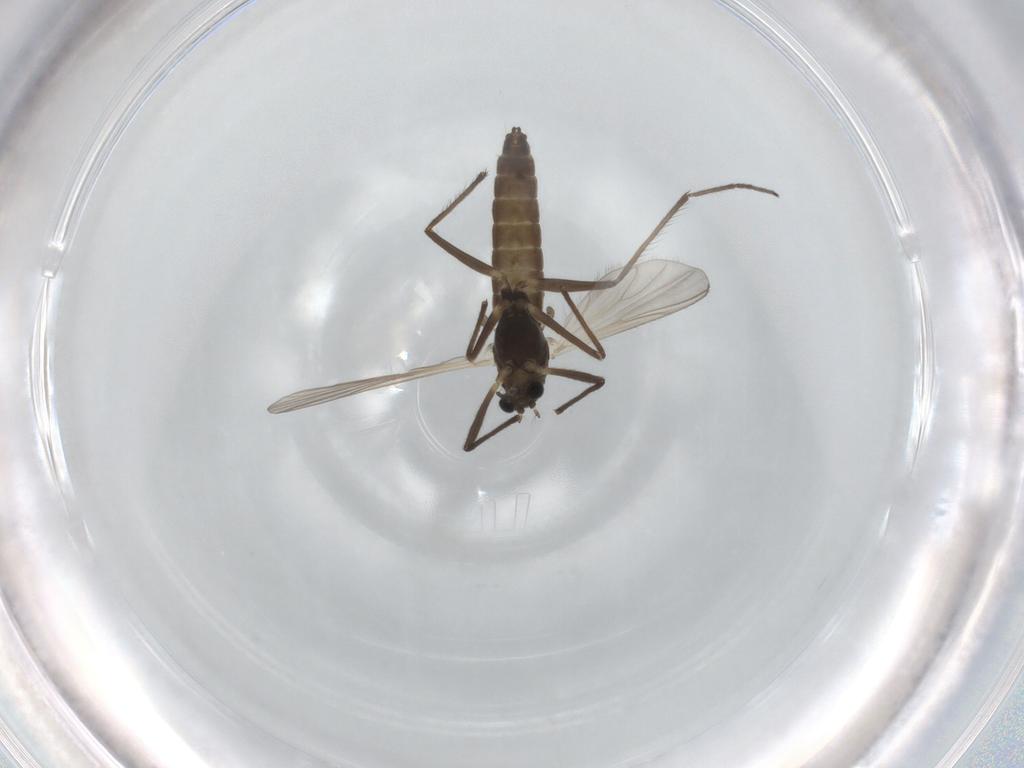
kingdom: Animalia
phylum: Arthropoda
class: Insecta
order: Diptera
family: Chironomidae
